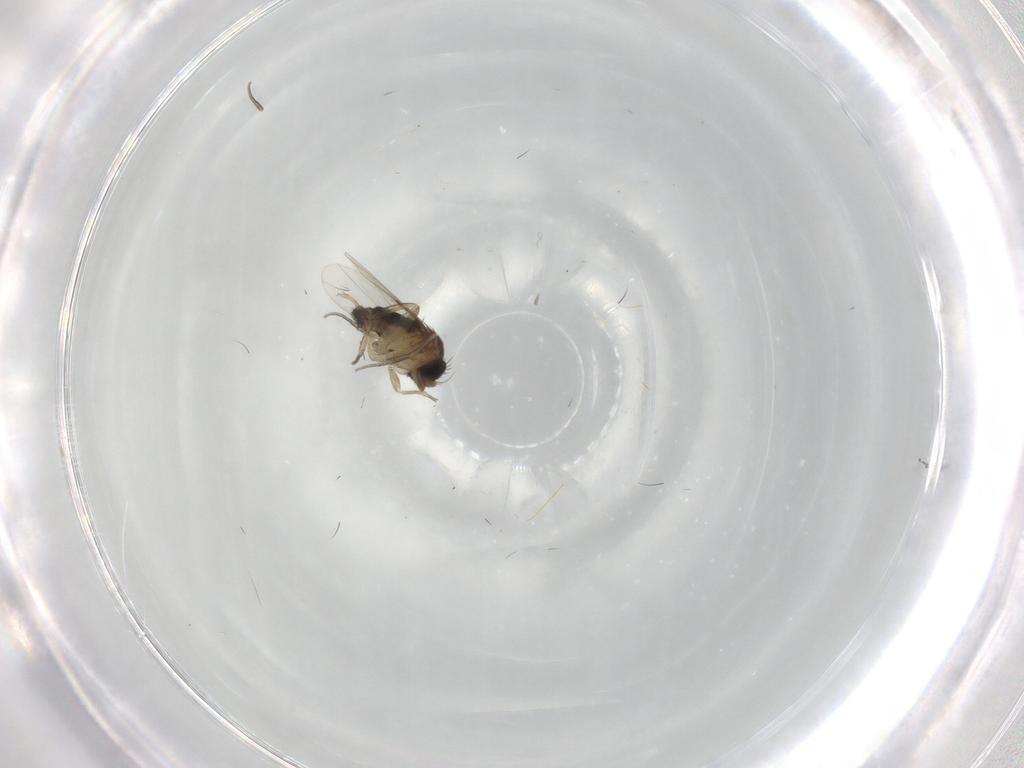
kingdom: Animalia
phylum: Arthropoda
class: Insecta
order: Diptera
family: Phoridae
